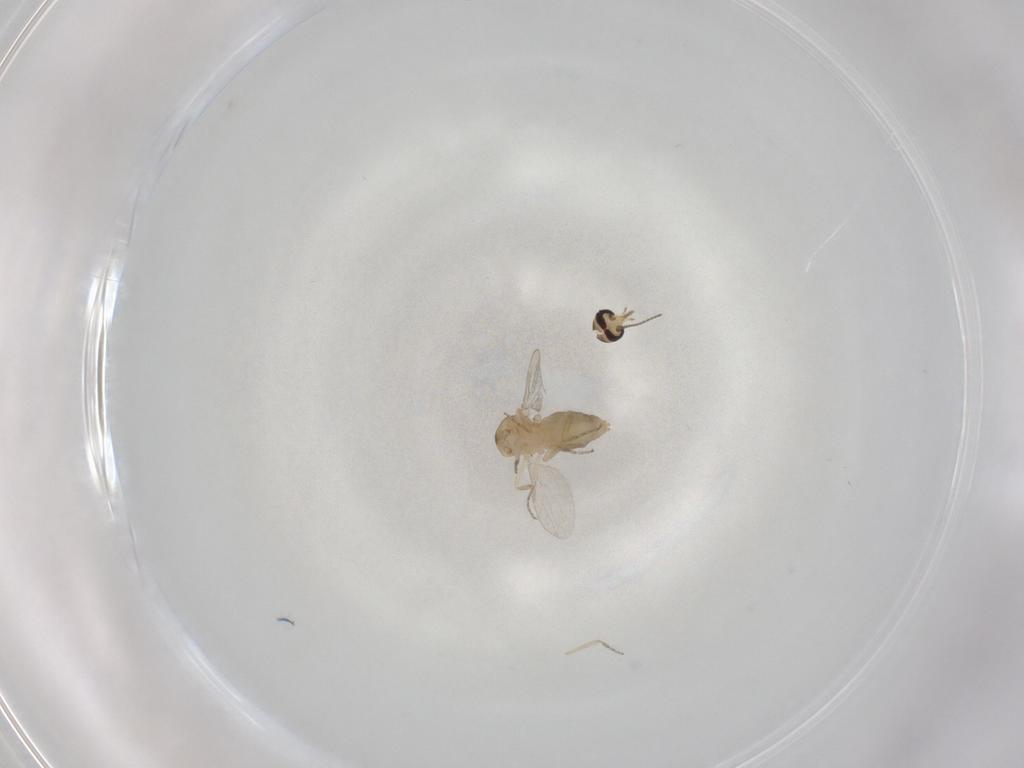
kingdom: Animalia
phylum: Arthropoda
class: Insecta
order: Diptera
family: Ceratopogonidae
